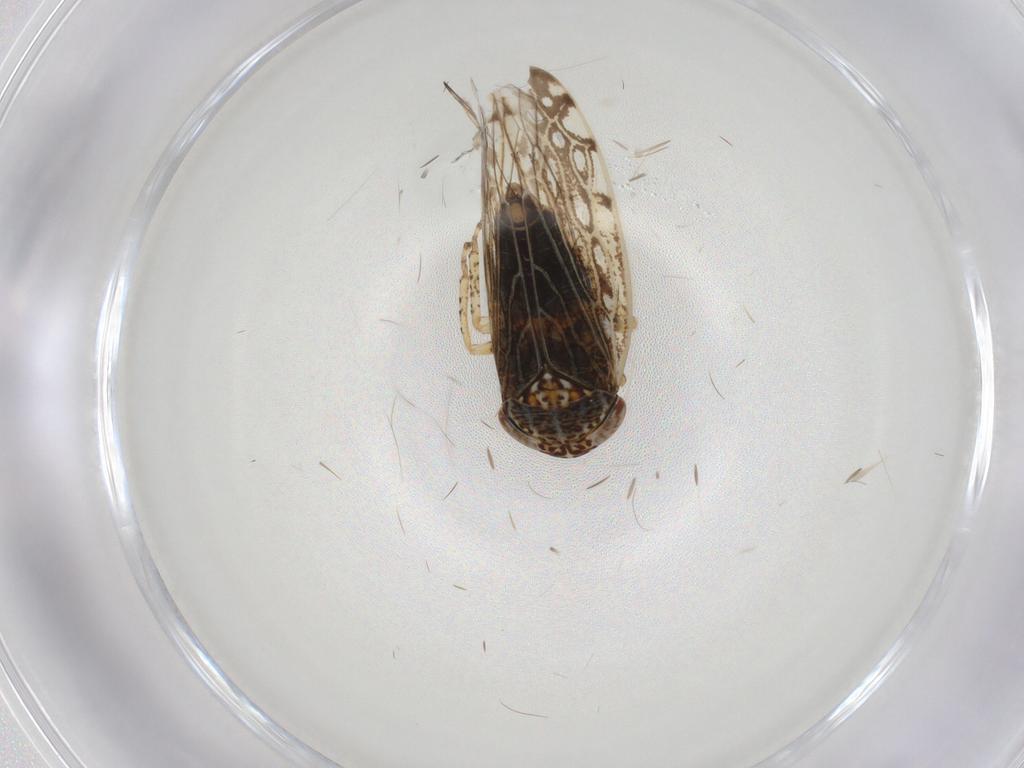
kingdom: Animalia
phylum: Arthropoda
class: Insecta
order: Hemiptera
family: Cicadellidae
